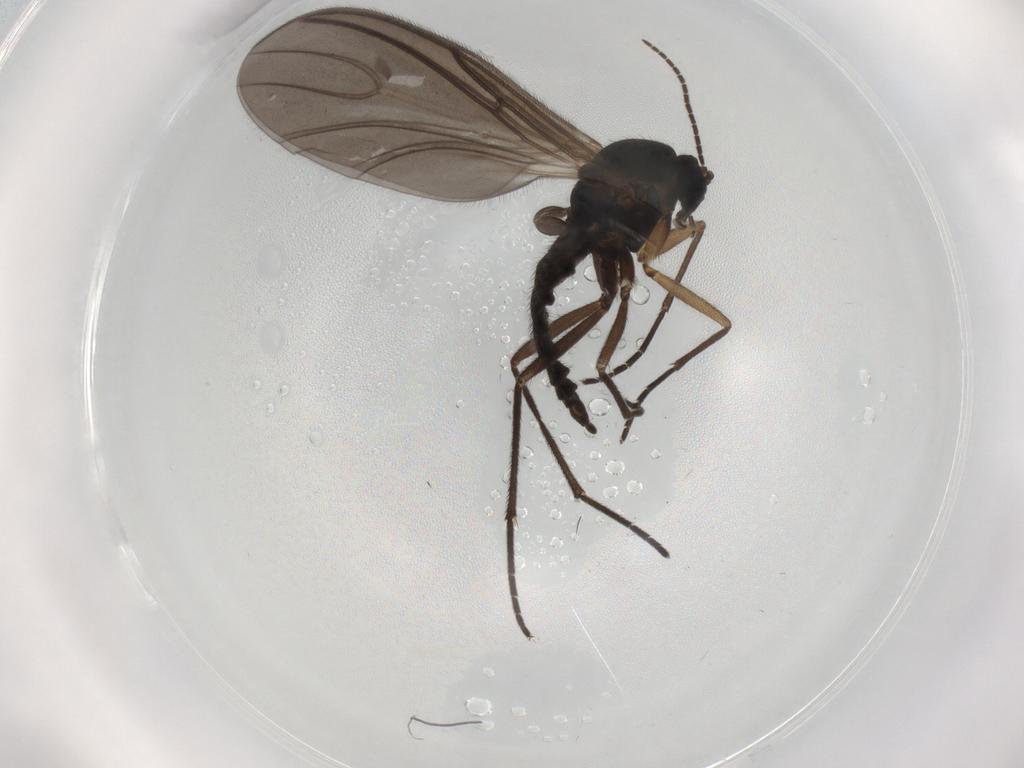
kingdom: Animalia
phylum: Arthropoda
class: Insecta
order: Diptera
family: Sciaridae
